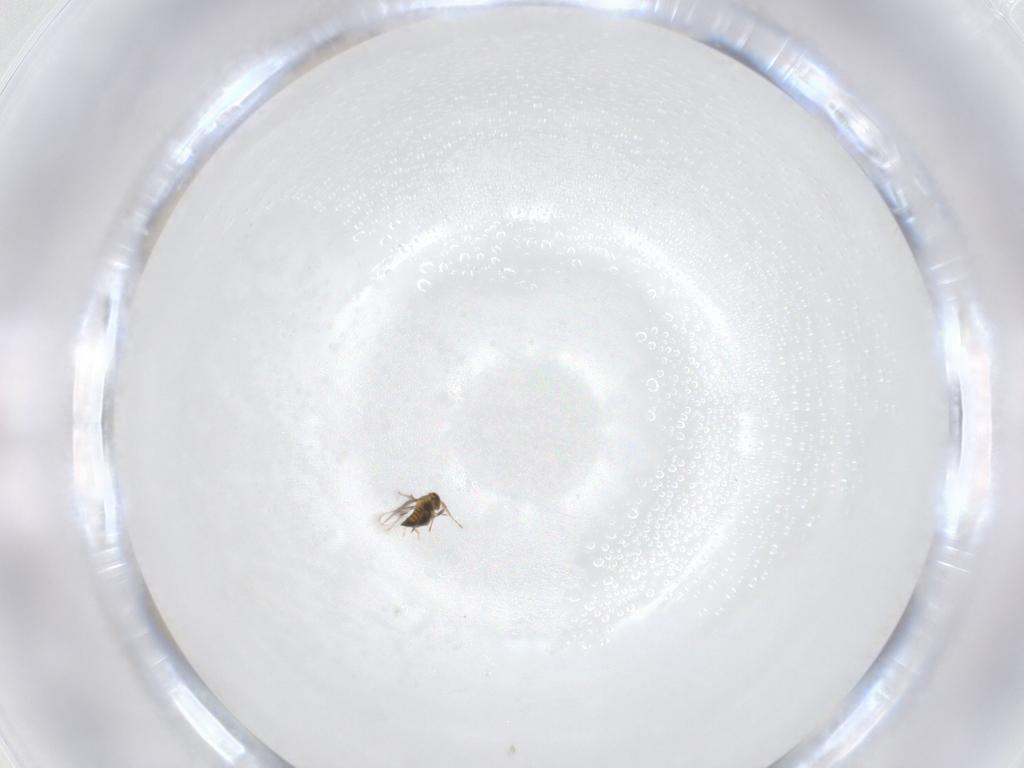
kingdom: Animalia
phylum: Arthropoda
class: Insecta
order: Hymenoptera
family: Trichogrammatidae
